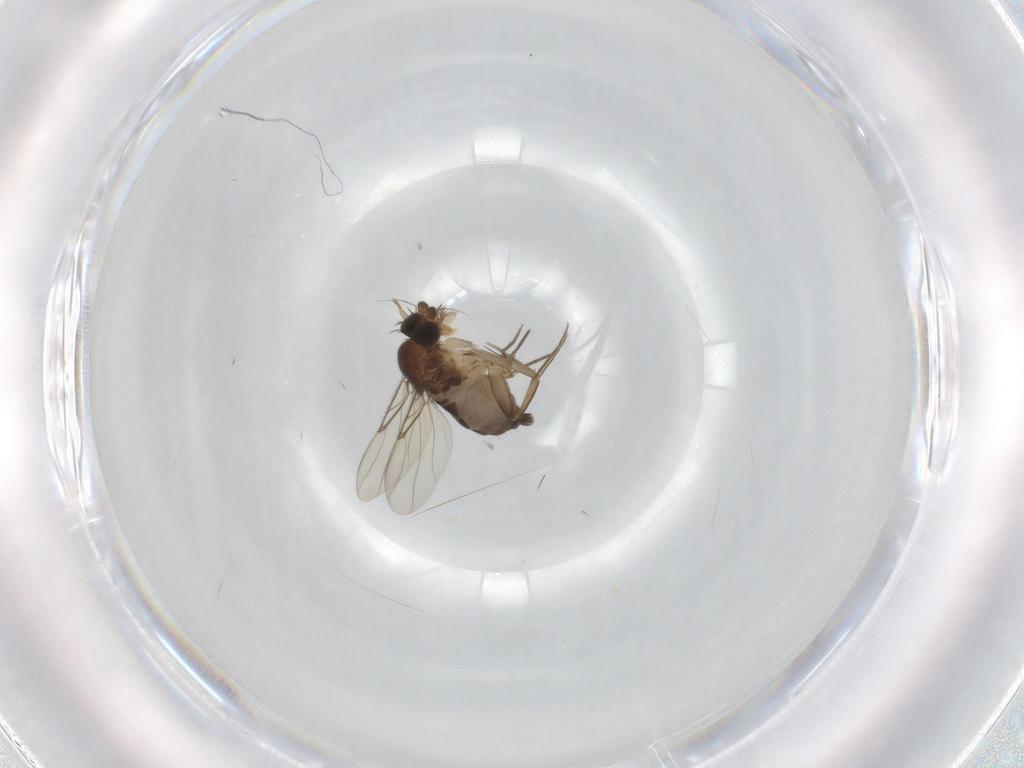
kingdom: Animalia
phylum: Arthropoda
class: Insecta
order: Diptera
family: Phoridae
